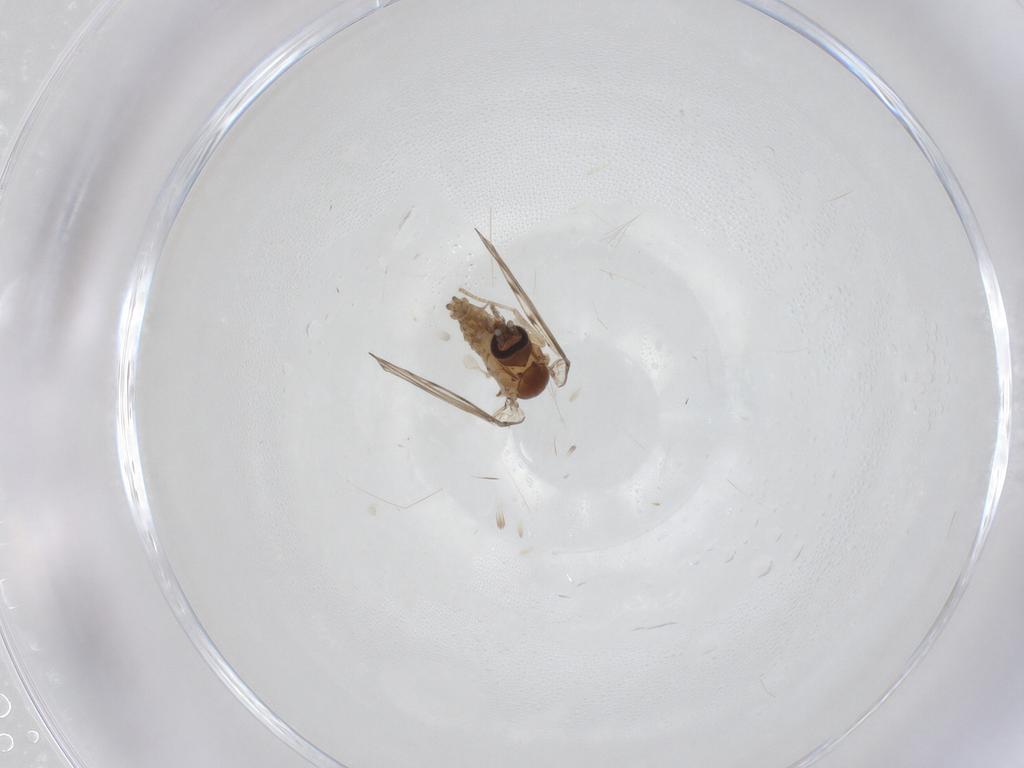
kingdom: Animalia
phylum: Arthropoda
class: Insecta
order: Diptera
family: Psychodidae
